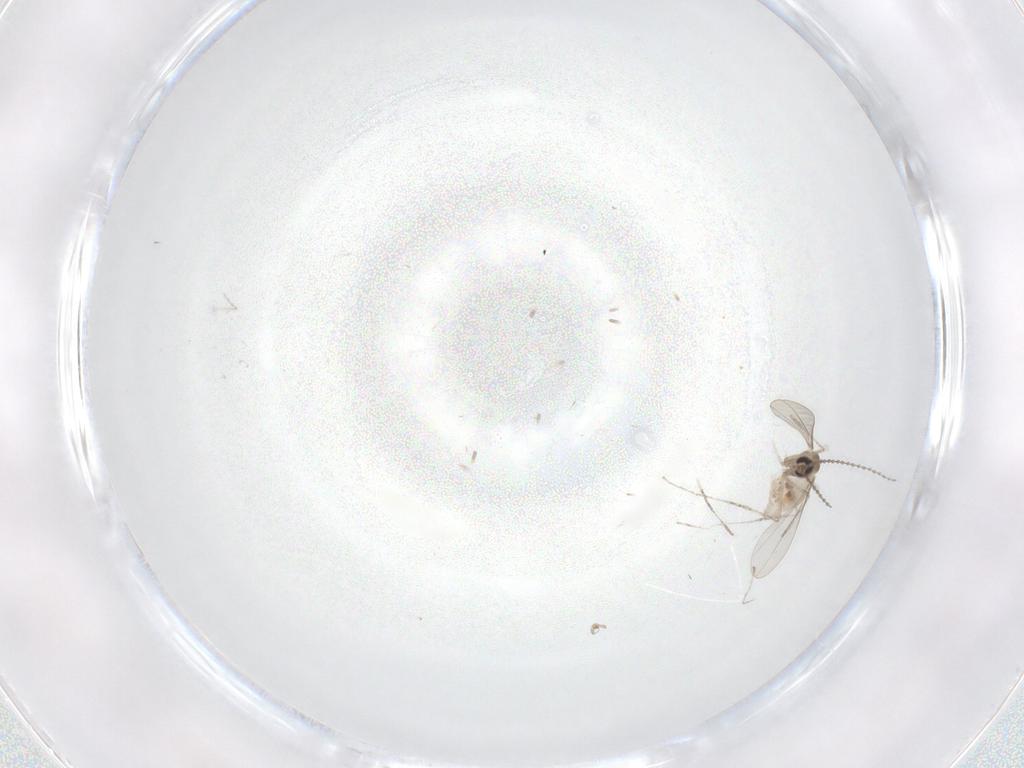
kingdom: Animalia
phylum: Arthropoda
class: Insecta
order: Diptera
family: Cecidomyiidae
